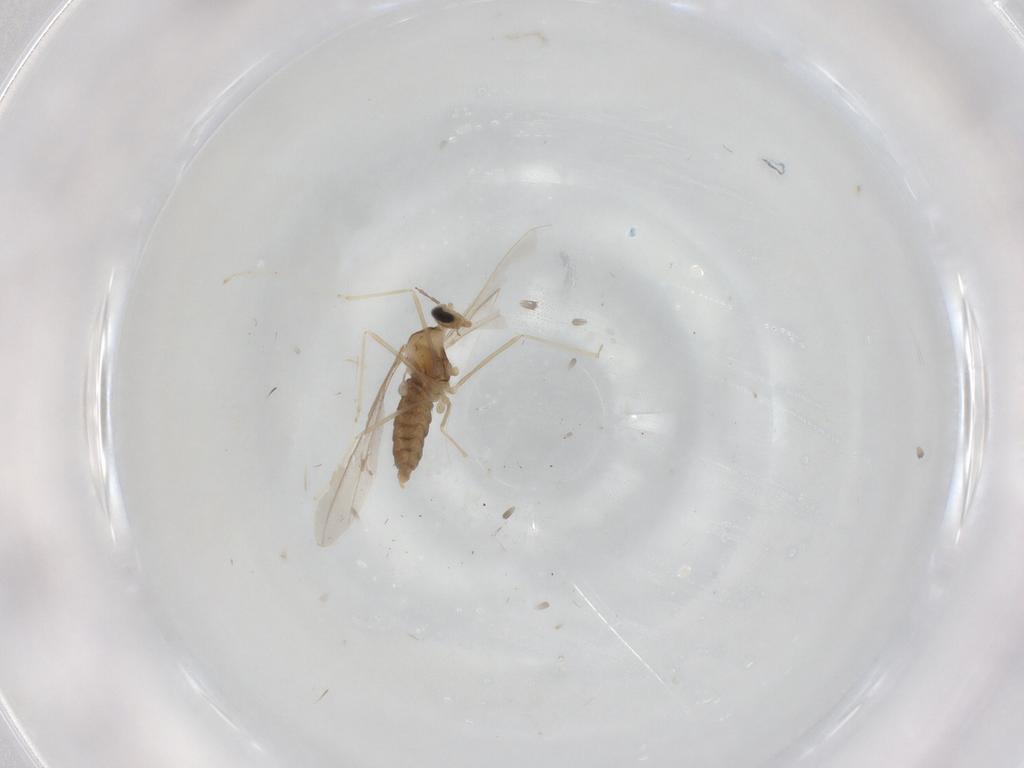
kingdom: Animalia
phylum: Arthropoda
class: Insecta
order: Diptera
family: Cecidomyiidae
